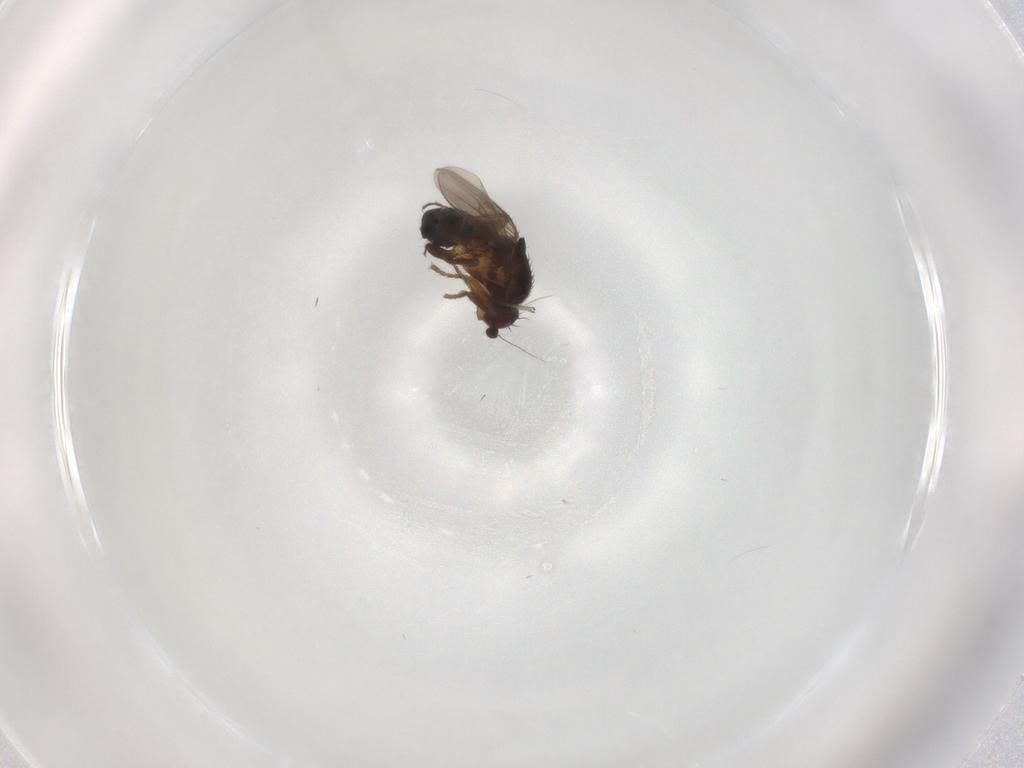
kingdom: Animalia
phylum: Arthropoda
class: Insecta
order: Diptera
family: Sphaeroceridae
